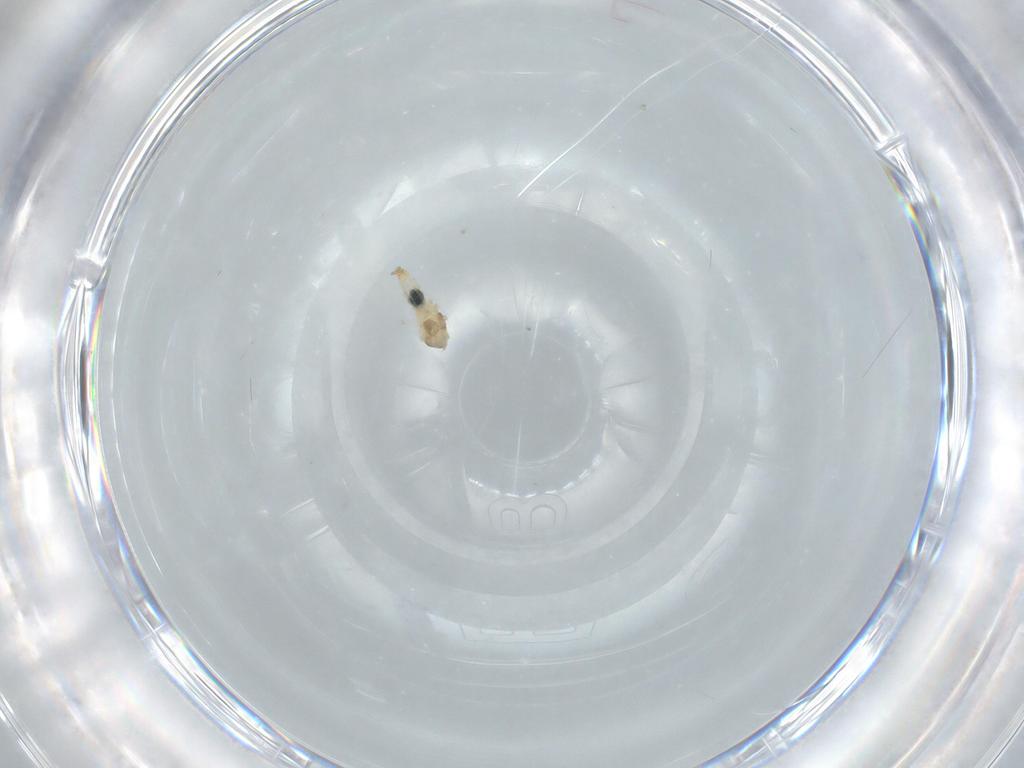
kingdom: Animalia
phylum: Arthropoda
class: Insecta
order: Diptera
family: Cecidomyiidae
